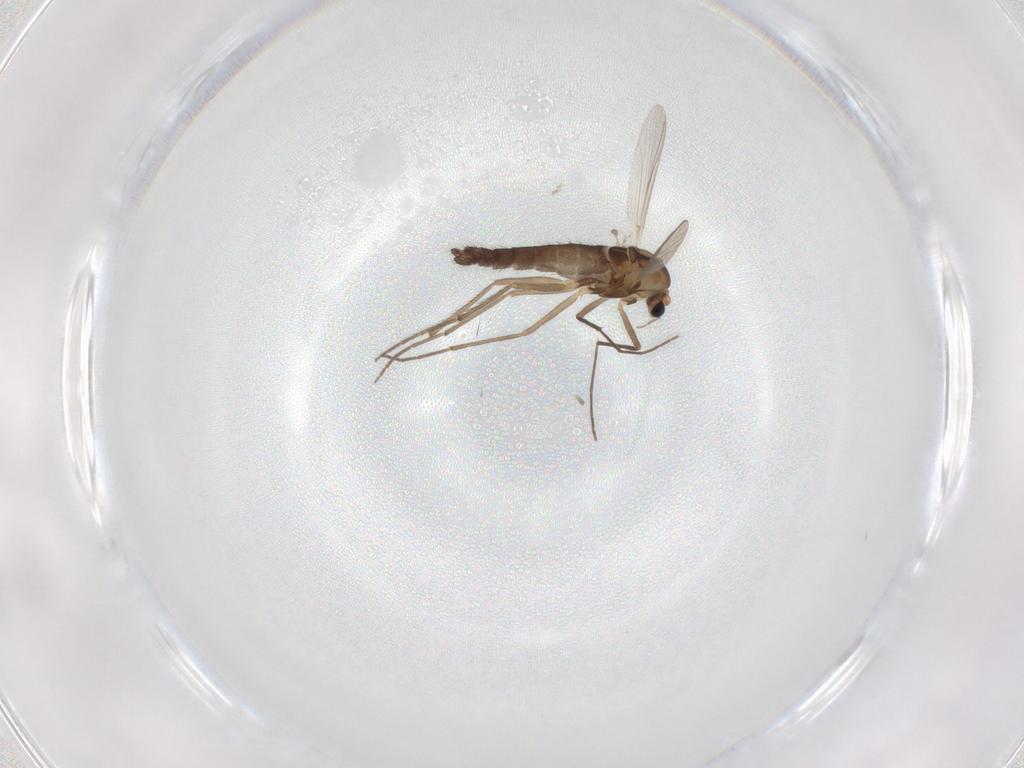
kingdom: Animalia
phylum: Arthropoda
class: Insecta
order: Diptera
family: Chironomidae
